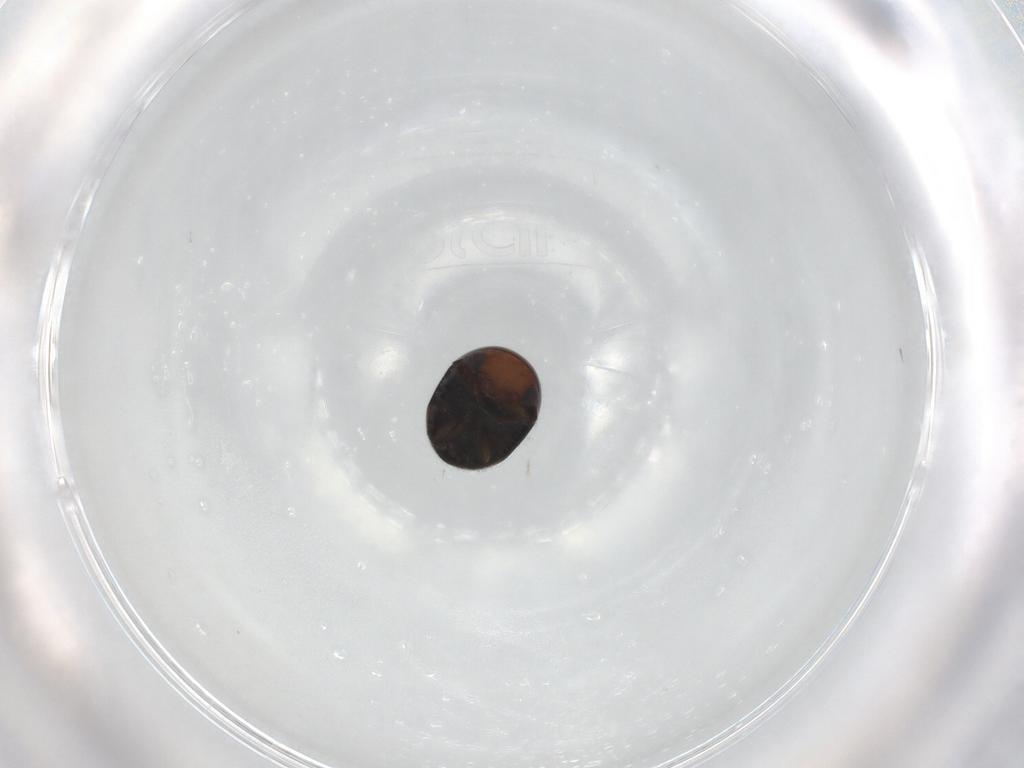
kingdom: Animalia
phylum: Arthropoda
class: Insecta
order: Coleoptera
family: Cybocephalidae
